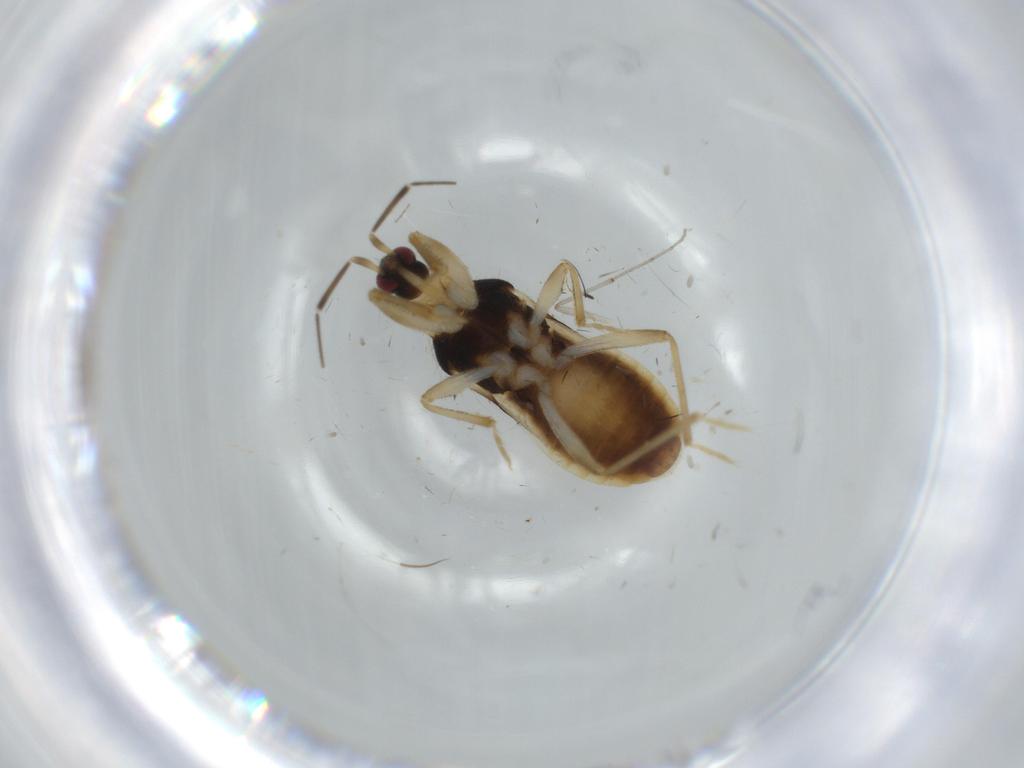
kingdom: Animalia
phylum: Arthropoda
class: Insecta
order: Hemiptera
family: Nabidae
